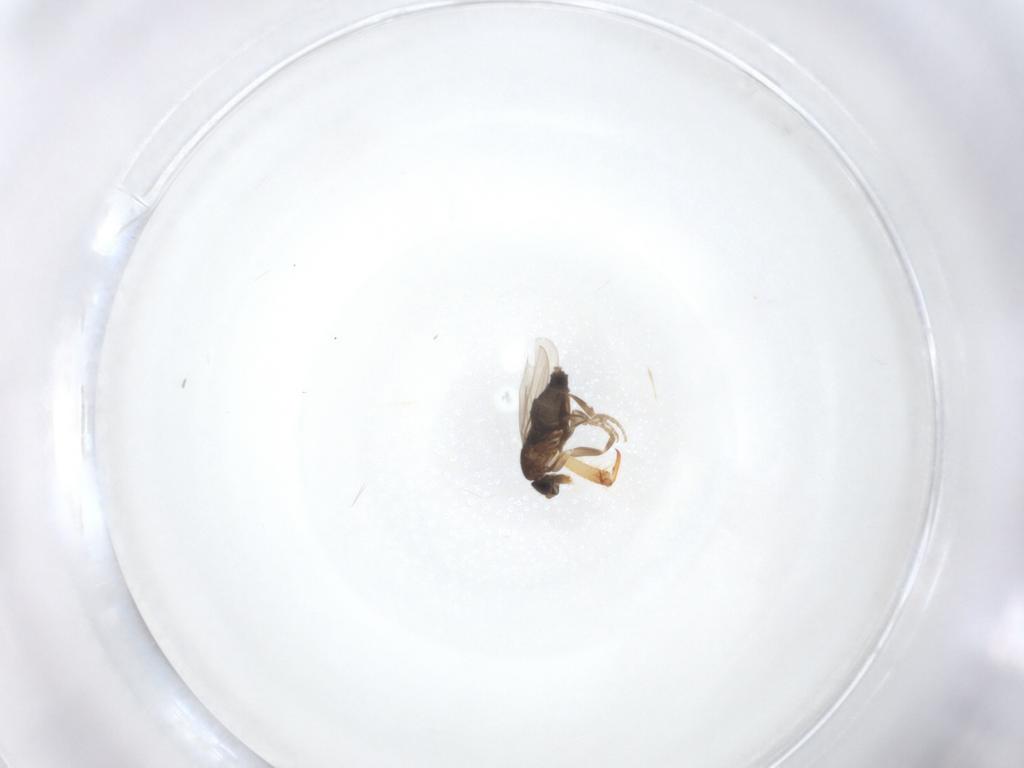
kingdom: Animalia
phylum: Arthropoda
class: Insecta
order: Diptera
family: Phoridae
